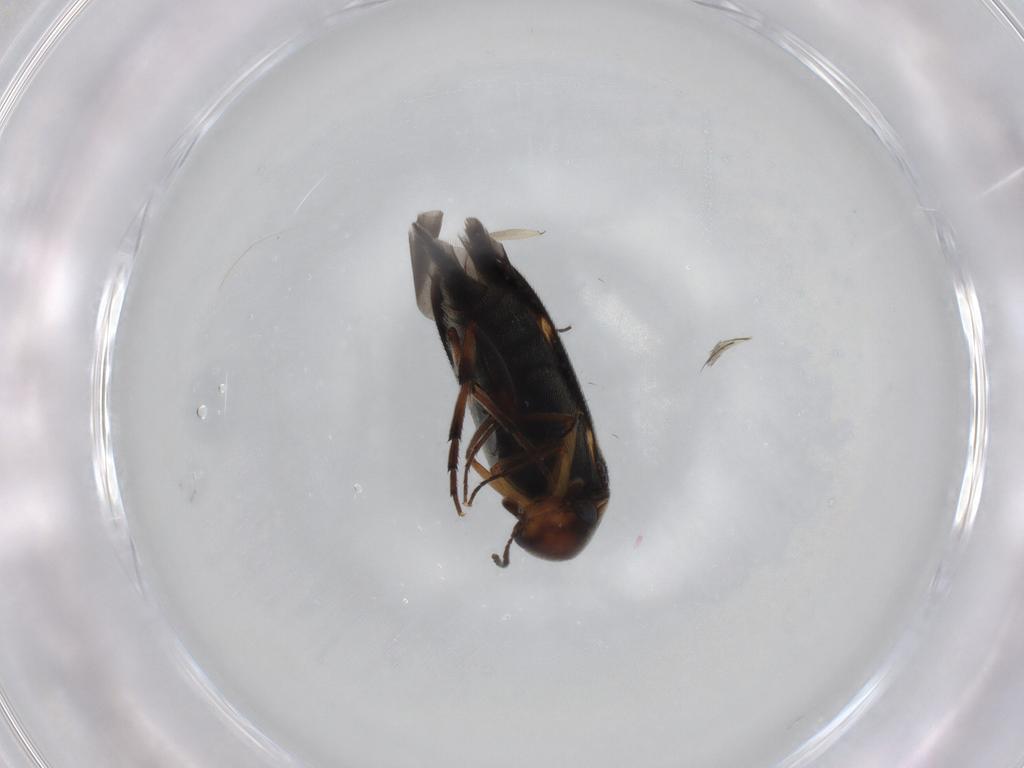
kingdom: Animalia
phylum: Arthropoda
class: Insecta
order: Coleoptera
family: Mordellidae
